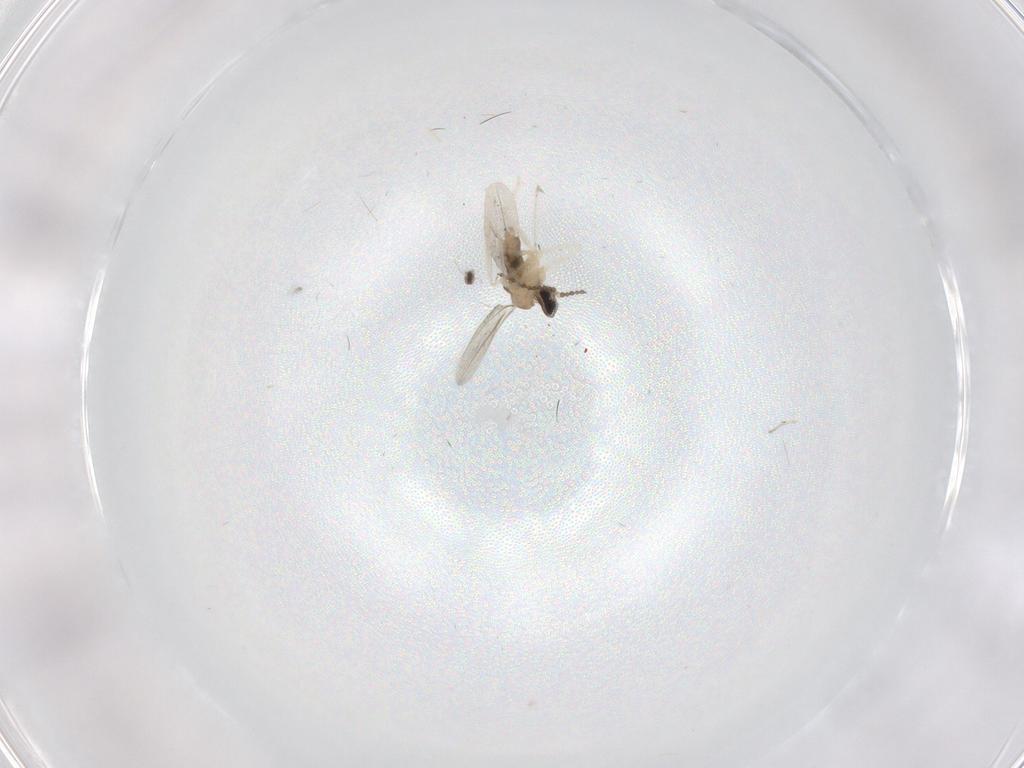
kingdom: Animalia
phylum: Arthropoda
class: Insecta
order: Diptera
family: Cecidomyiidae
